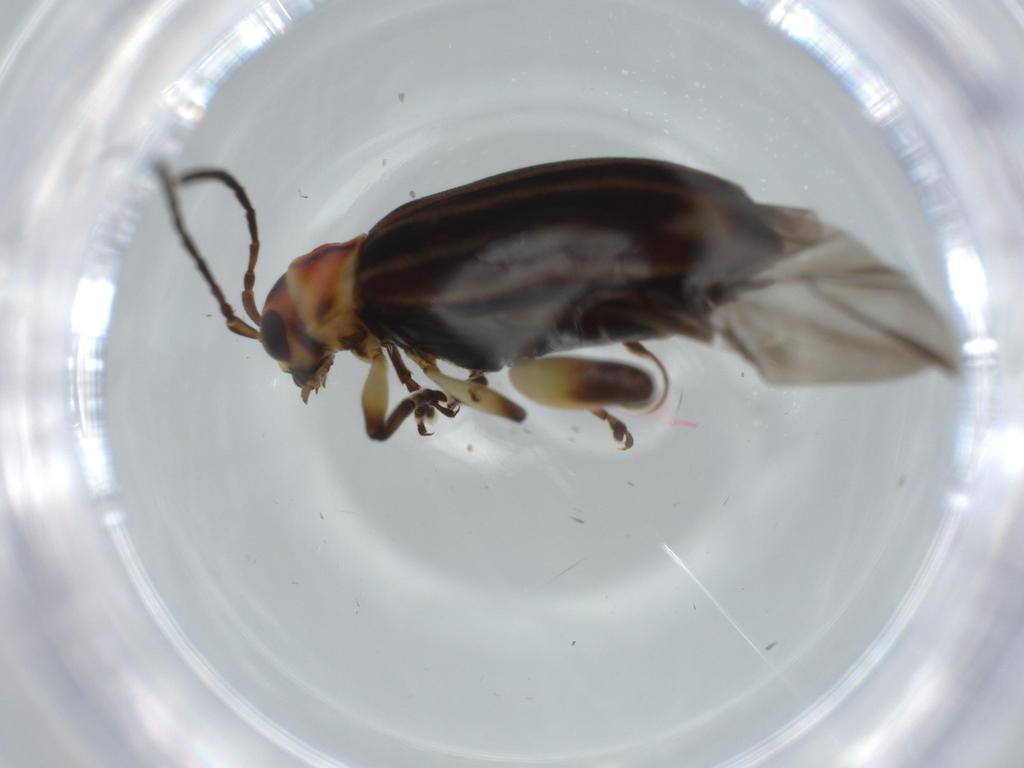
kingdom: Animalia
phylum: Arthropoda
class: Insecta
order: Coleoptera
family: Chrysomelidae
